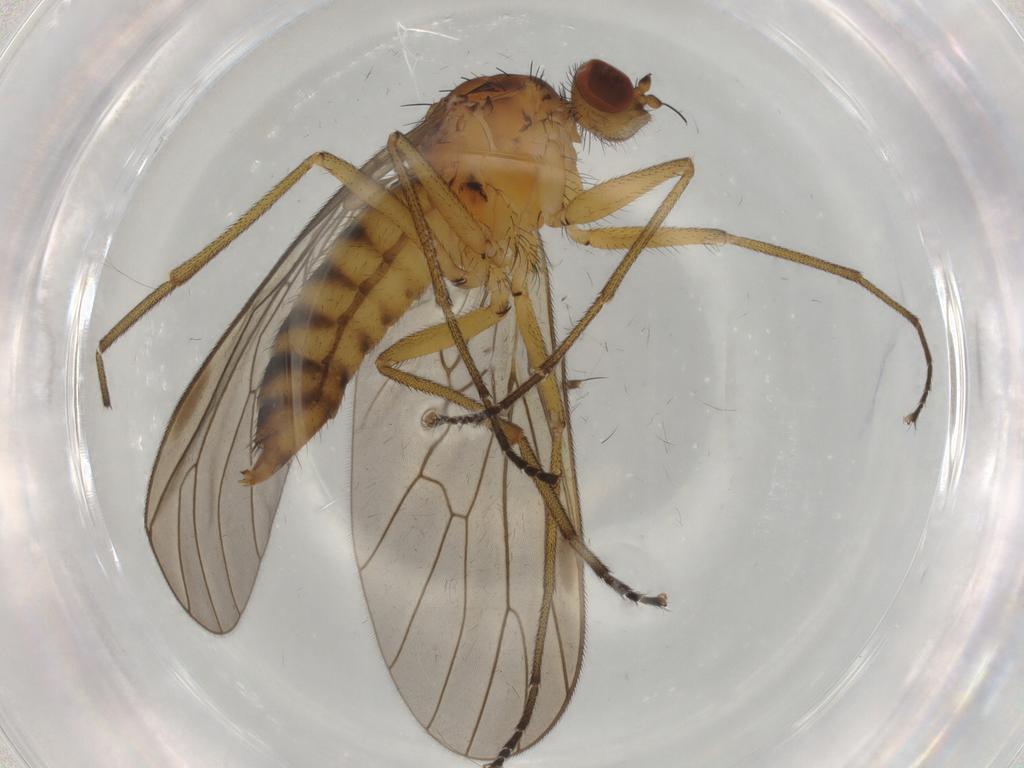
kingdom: Animalia
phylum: Arthropoda
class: Insecta
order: Diptera
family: Brachystomatidae
